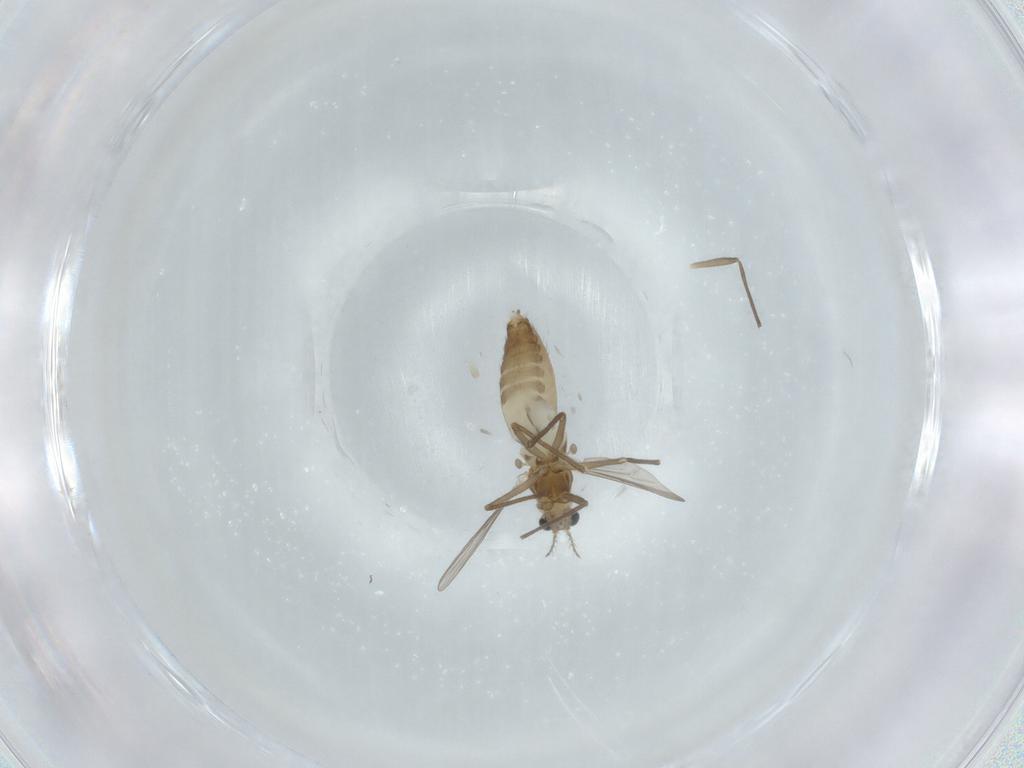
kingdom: Animalia
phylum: Arthropoda
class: Insecta
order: Diptera
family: Chironomidae
